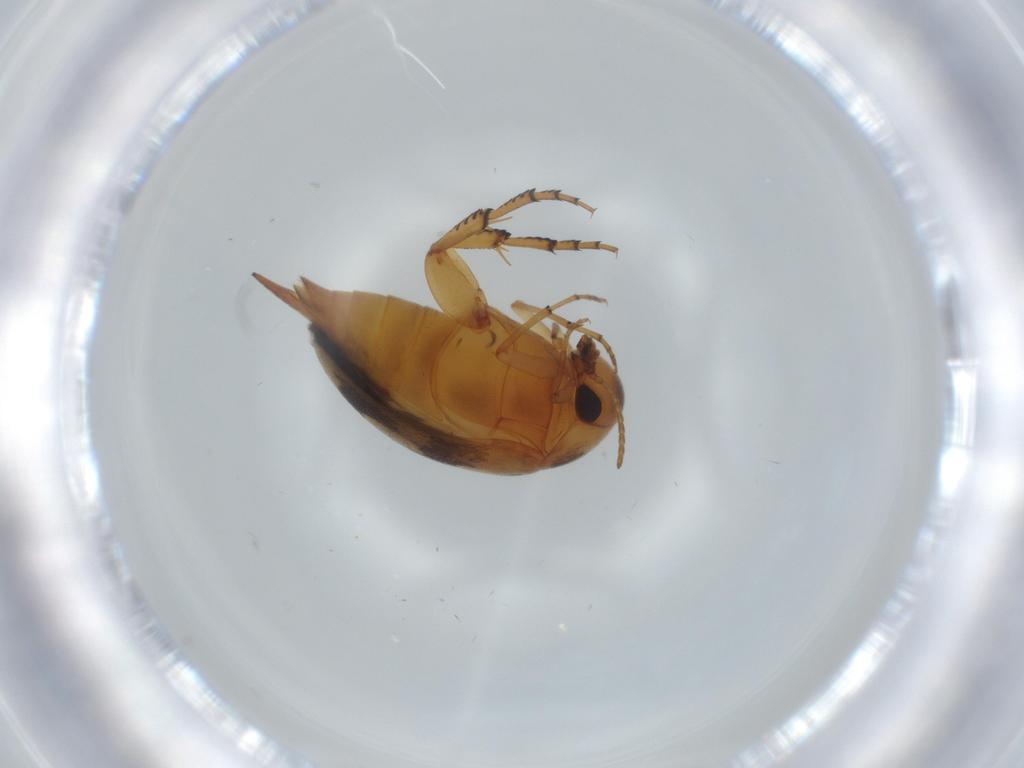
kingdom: Animalia
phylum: Arthropoda
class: Insecta
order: Coleoptera
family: Mordellidae
